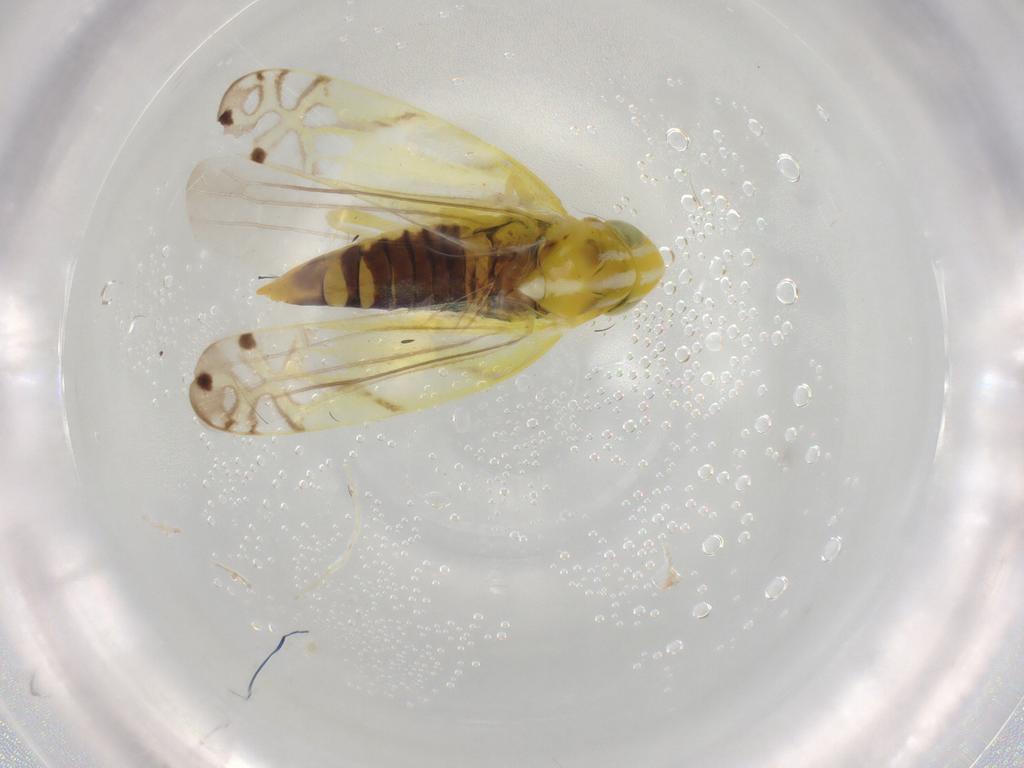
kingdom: Animalia
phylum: Arthropoda
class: Insecta
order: Hemiptera
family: Cicadellidae
